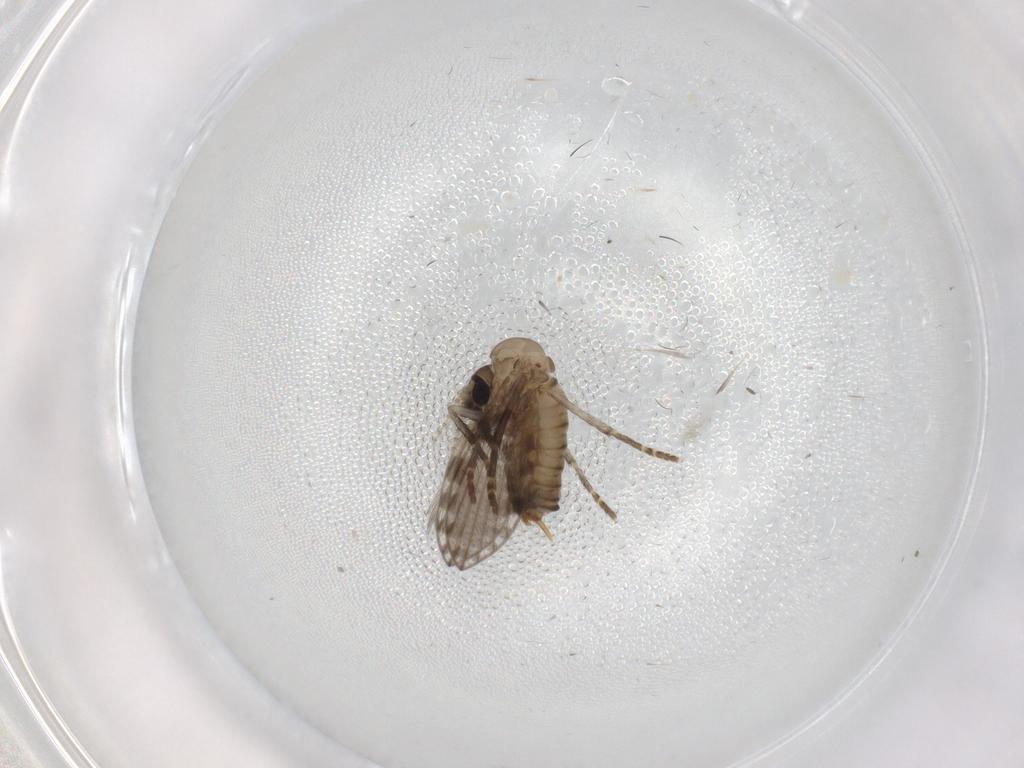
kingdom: Animalia
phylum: Arthropoda
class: Insecta
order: Diptera
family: Psychodidae
